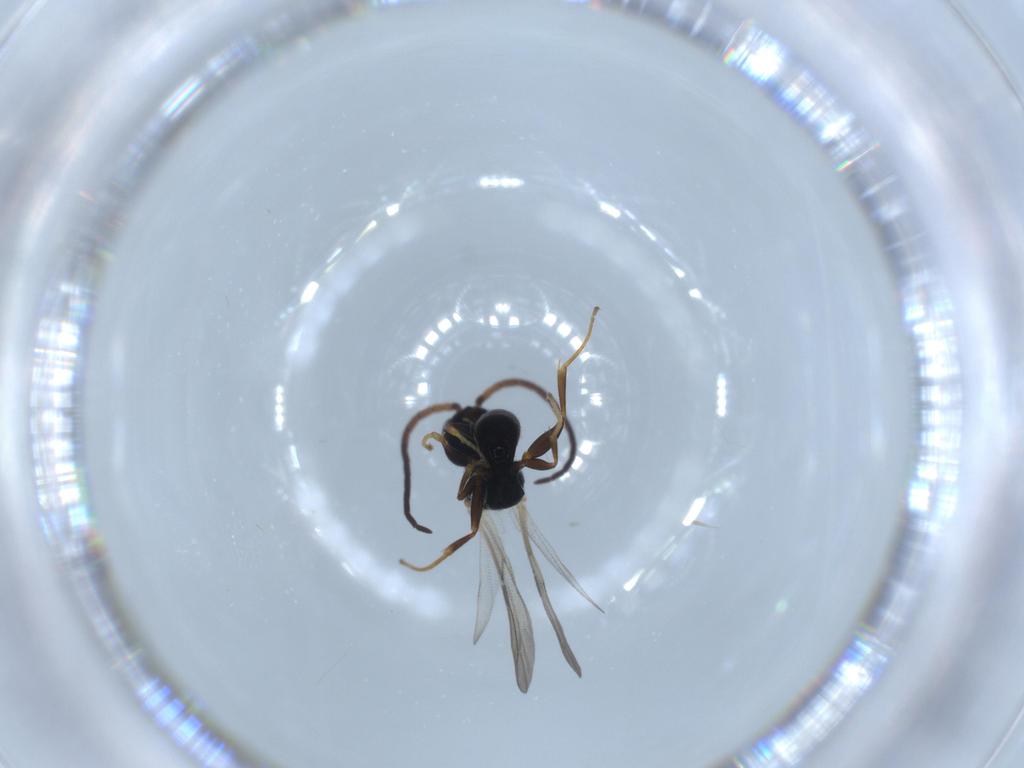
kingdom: Animalia
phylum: Arthropoda
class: Insecta
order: Hymenoptera
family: Bethylidae
